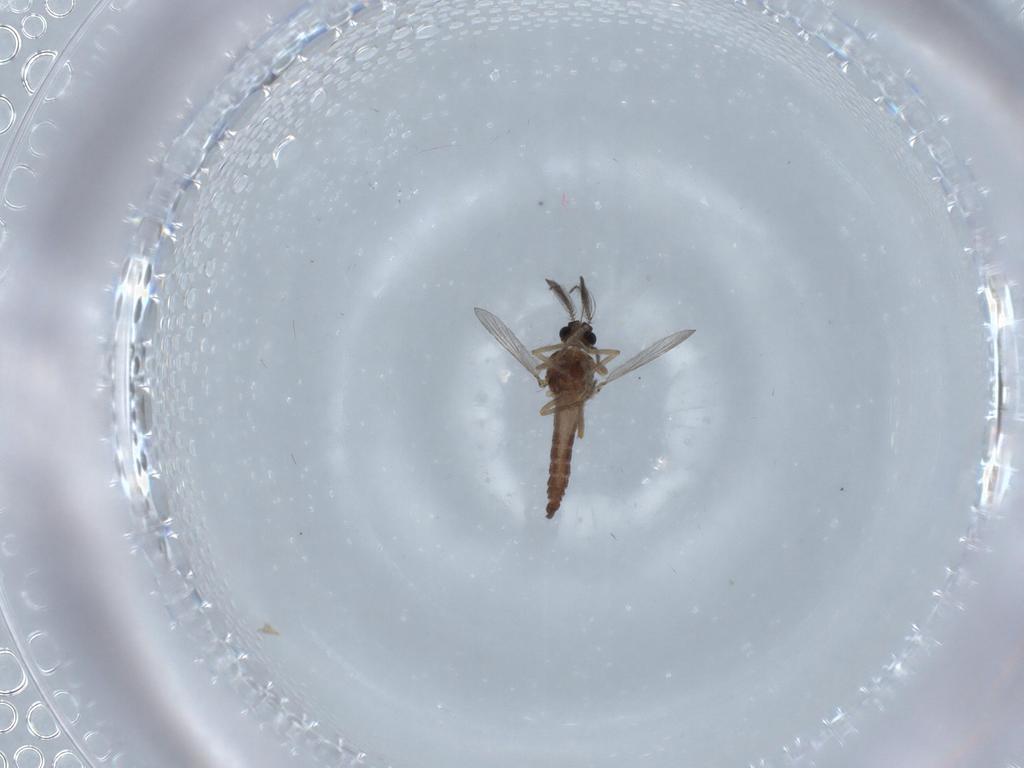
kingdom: Animalia
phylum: Arthropoda
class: Insecta
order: Diptera
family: Ceratopogonidae
